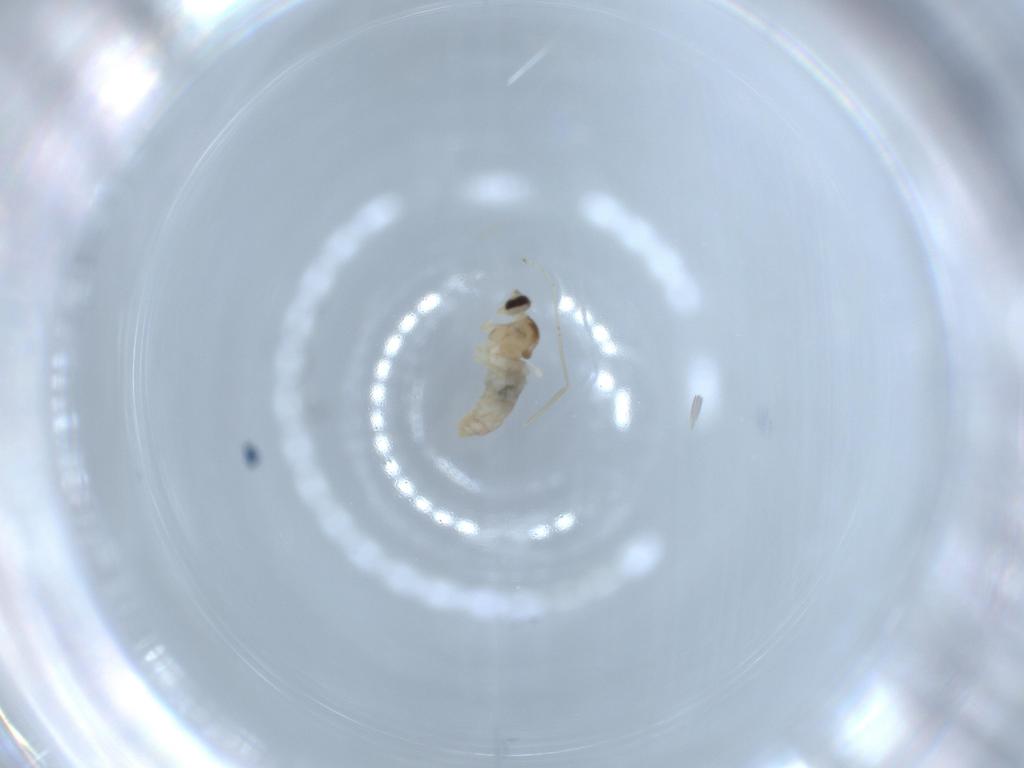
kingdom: Animalia
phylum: Arthropoda
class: Insecta
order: Diptera
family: Cecidomyiidae
